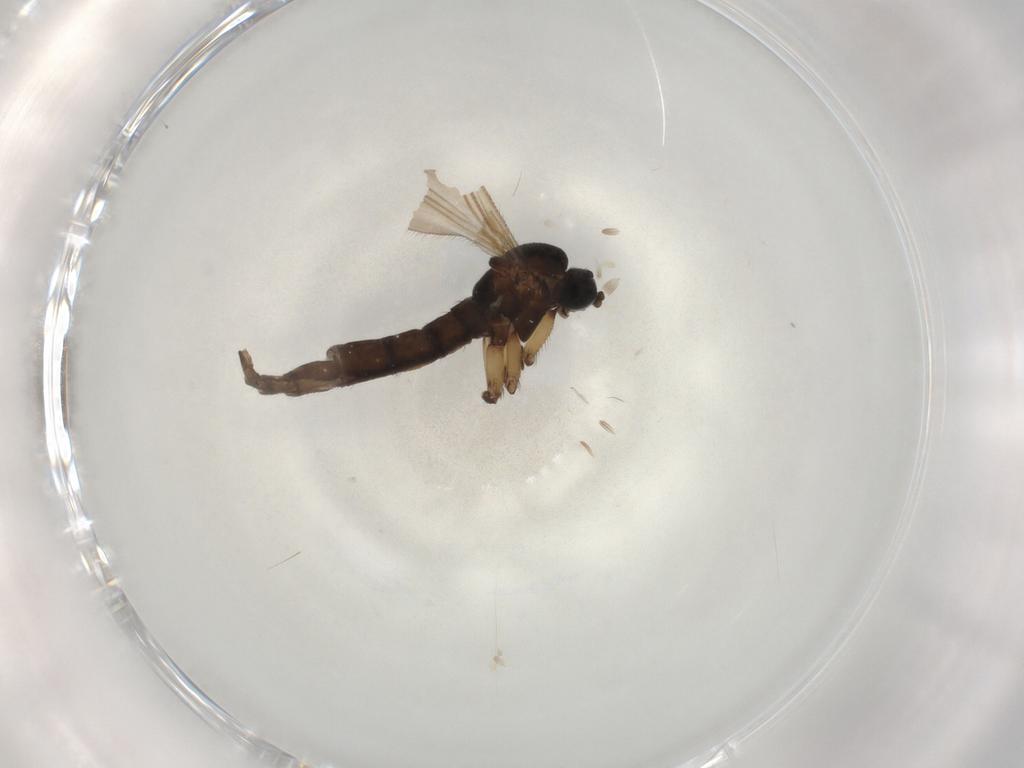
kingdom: Animalia
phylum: Arthropoda
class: Insecta
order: Diptera
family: Sciaridae
